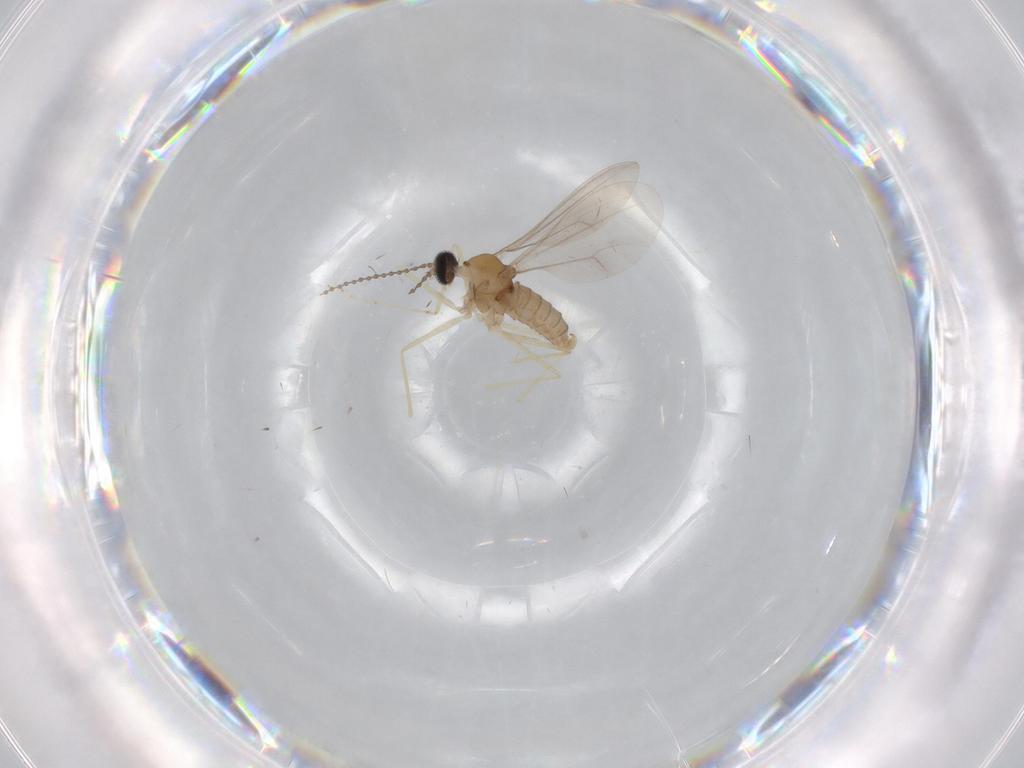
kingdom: Animalia
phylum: Arthropoda
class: Insecta
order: Diptera
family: Cecidomyiidae
